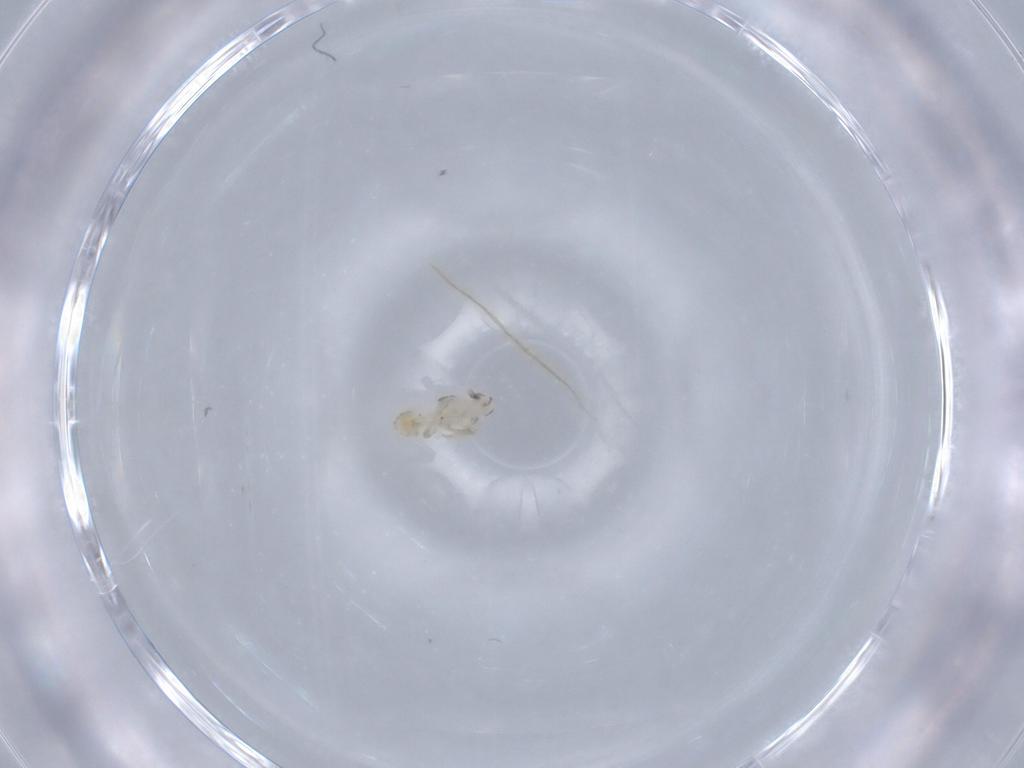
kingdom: Animalia
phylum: Arthropoda
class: Insecta
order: Hemiptera
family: Delphacidae
